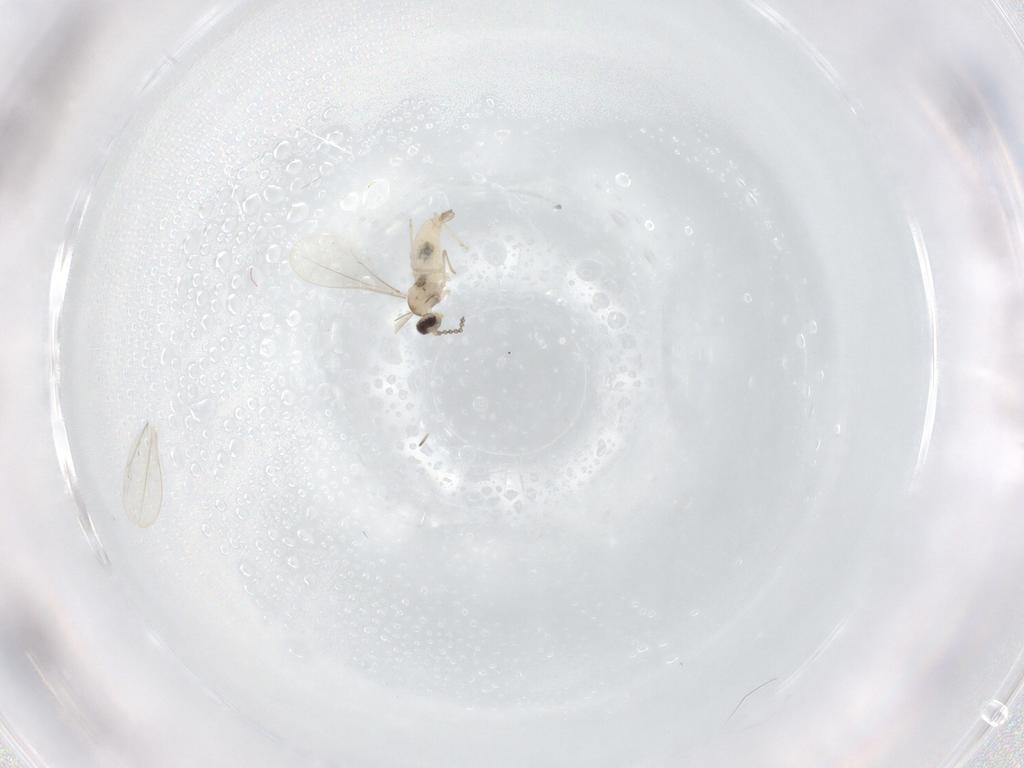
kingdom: Animalia
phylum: Arthropoda
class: Insecta
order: Diptera
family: Cecidomyiidae
